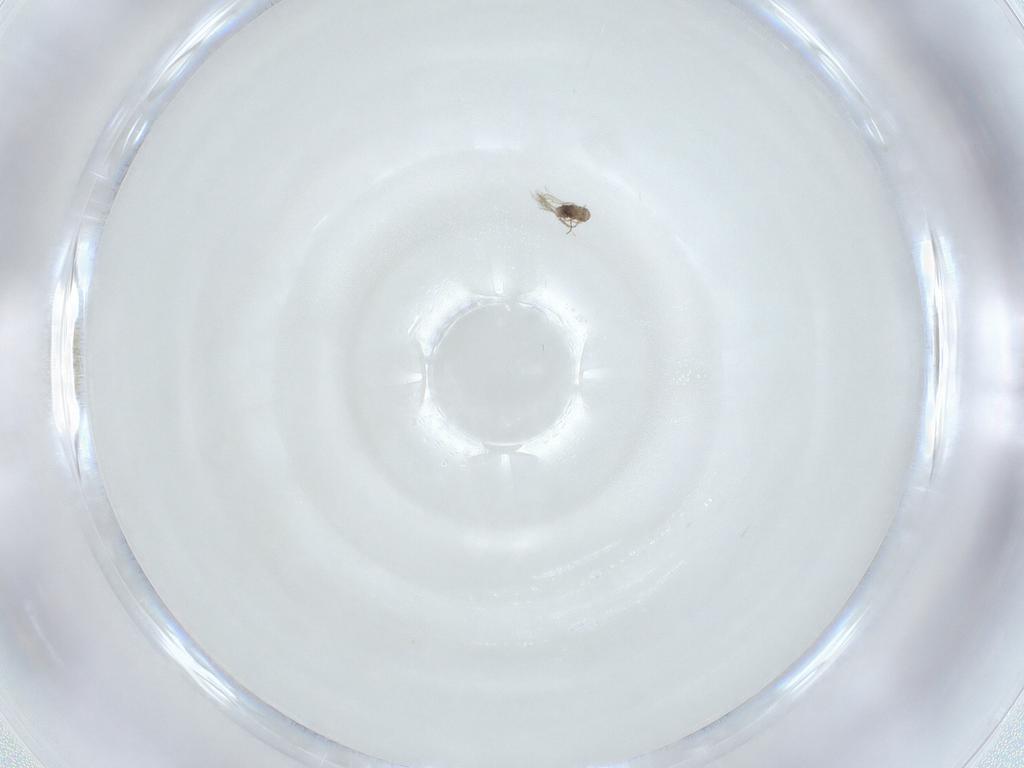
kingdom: Animalia
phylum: Arthropoda
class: Insecta
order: Hymenoptera
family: Mymaridae
